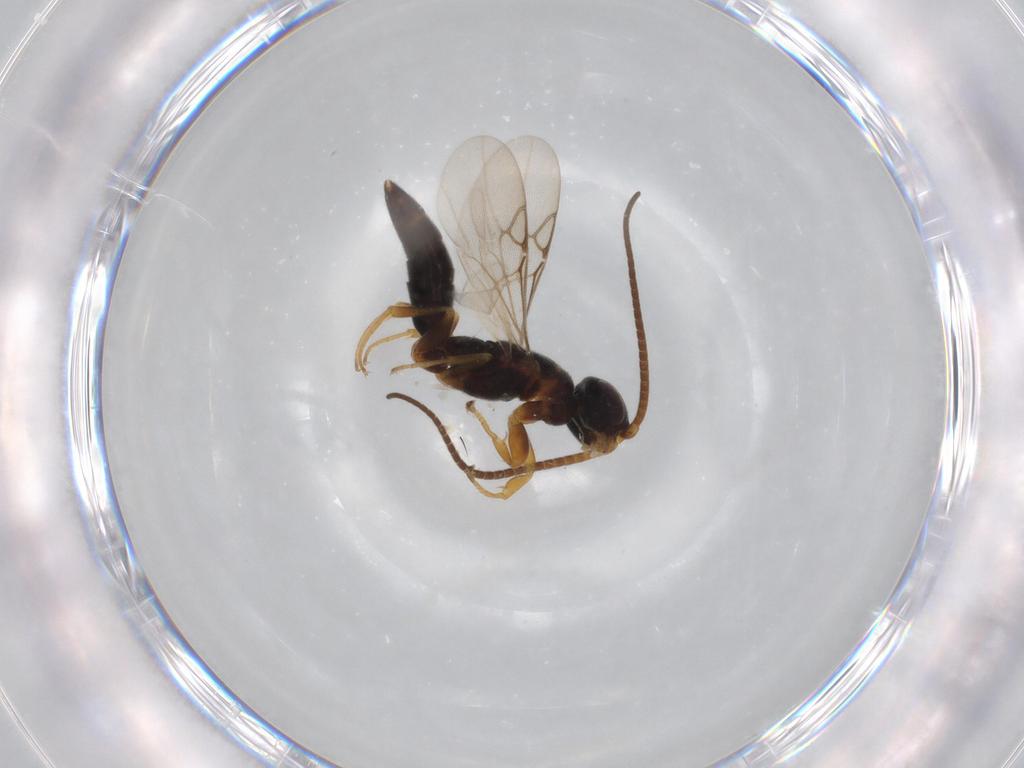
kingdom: Animalia
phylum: Arthropoda
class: Insecta
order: Hymenoptera
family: Sclerogibbidae
